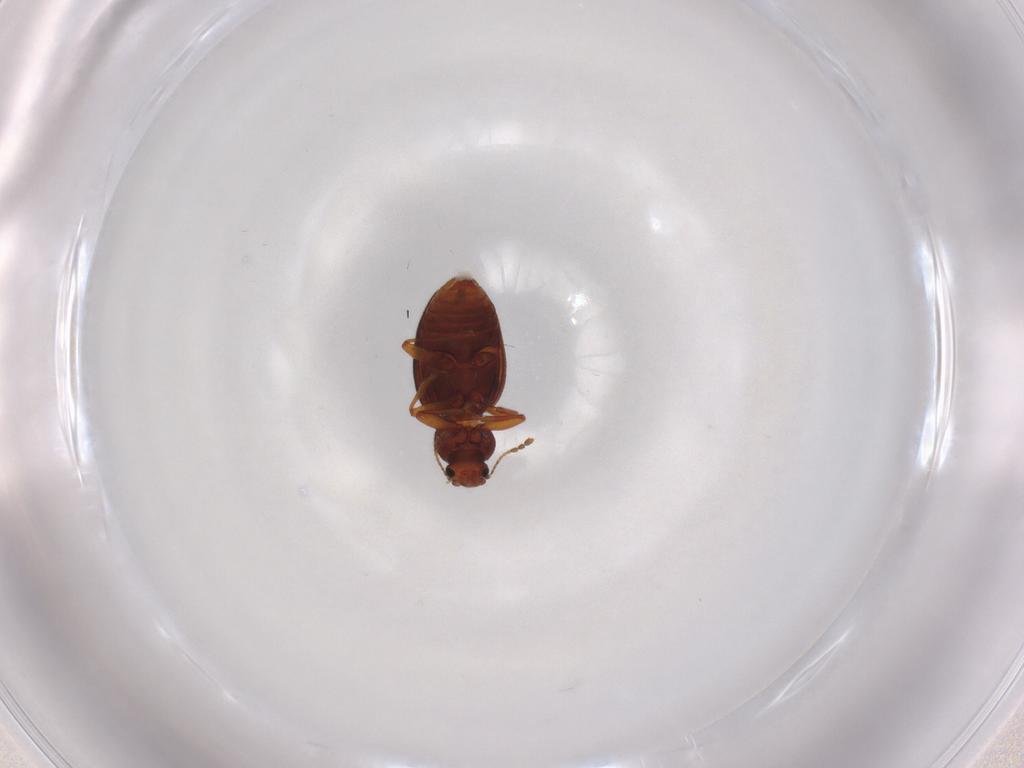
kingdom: Animalia
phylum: Arthropoda
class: Insecta
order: Coleoptera
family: Latridiidae
